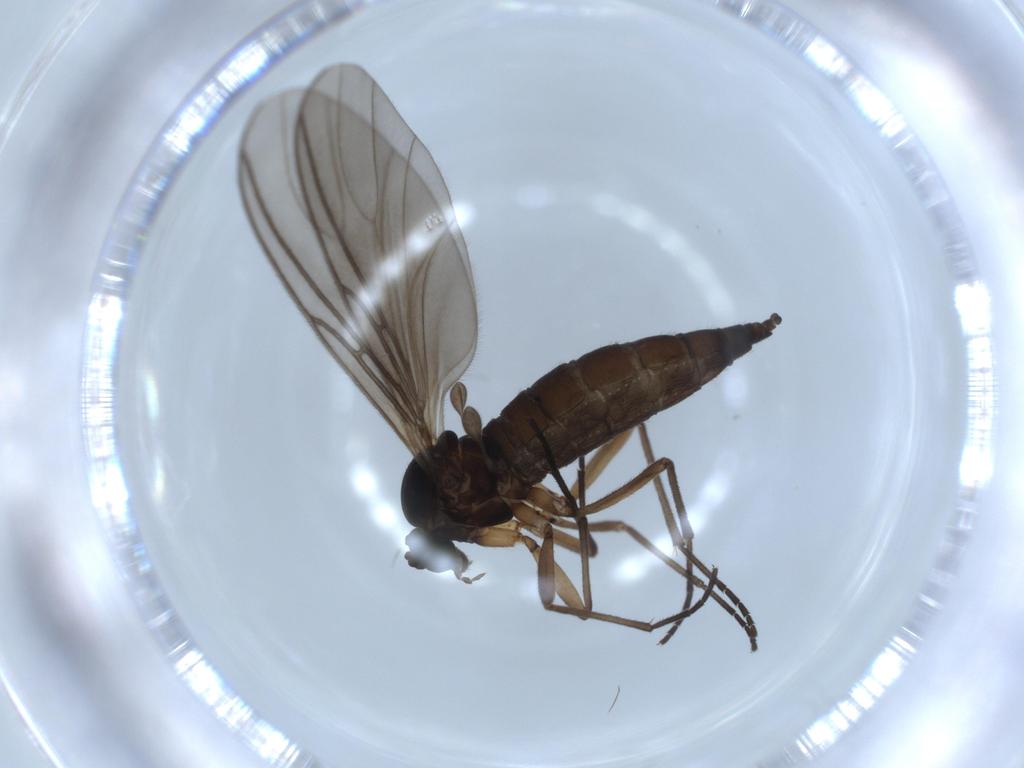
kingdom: Animalia
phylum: Arthropoda
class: Insecta
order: Diptera
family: Sciaridae
